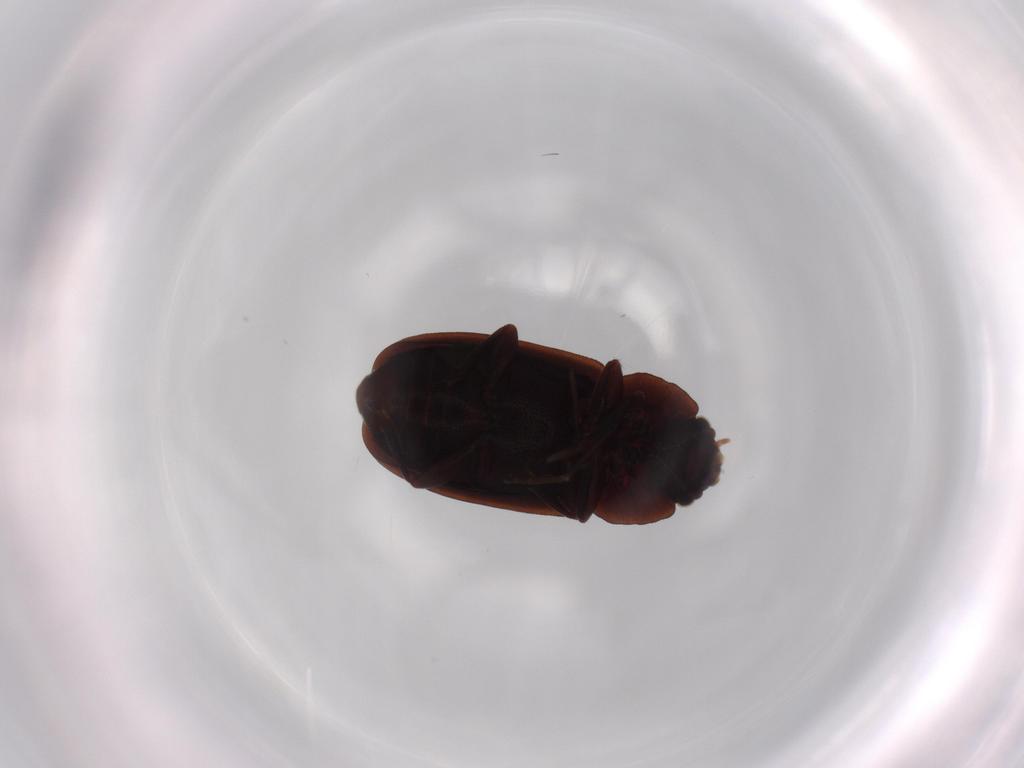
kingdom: Animalia
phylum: Arthropoda
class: Insecta
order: Coleoptera
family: Nitidulidae
